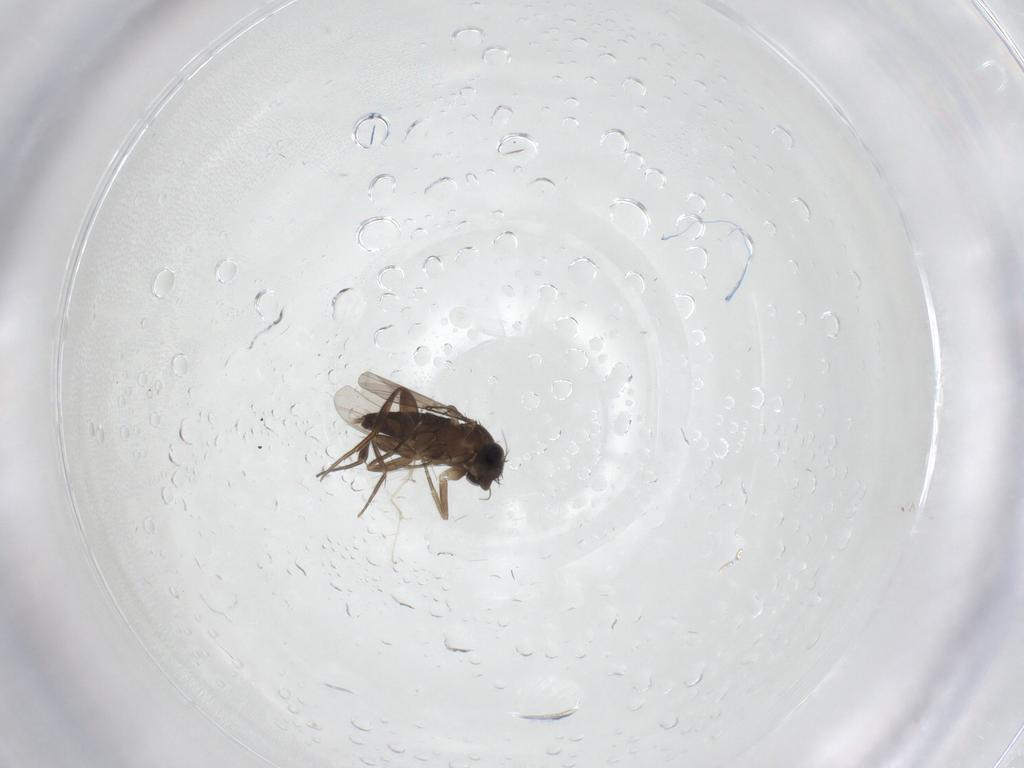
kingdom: Animalia
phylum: Arthropoda
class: Insecta
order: Diptera
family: Phoridae
